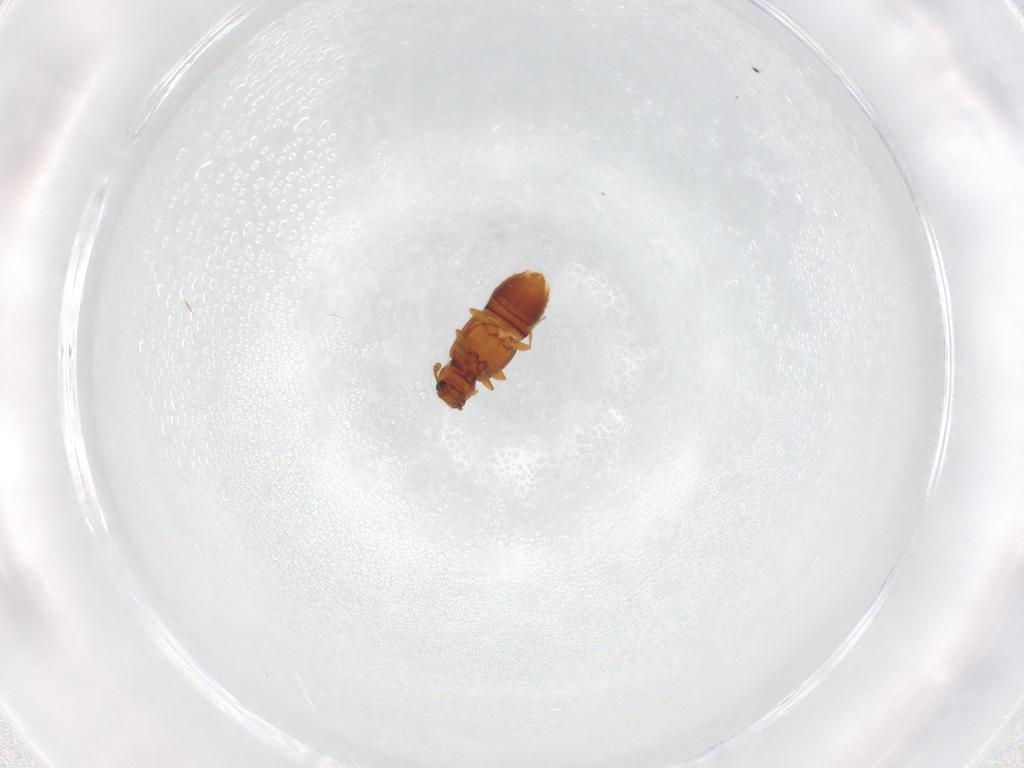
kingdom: Animalia
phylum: Arthropoda
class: Insecta
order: Coleoptera
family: Staphylinidae
